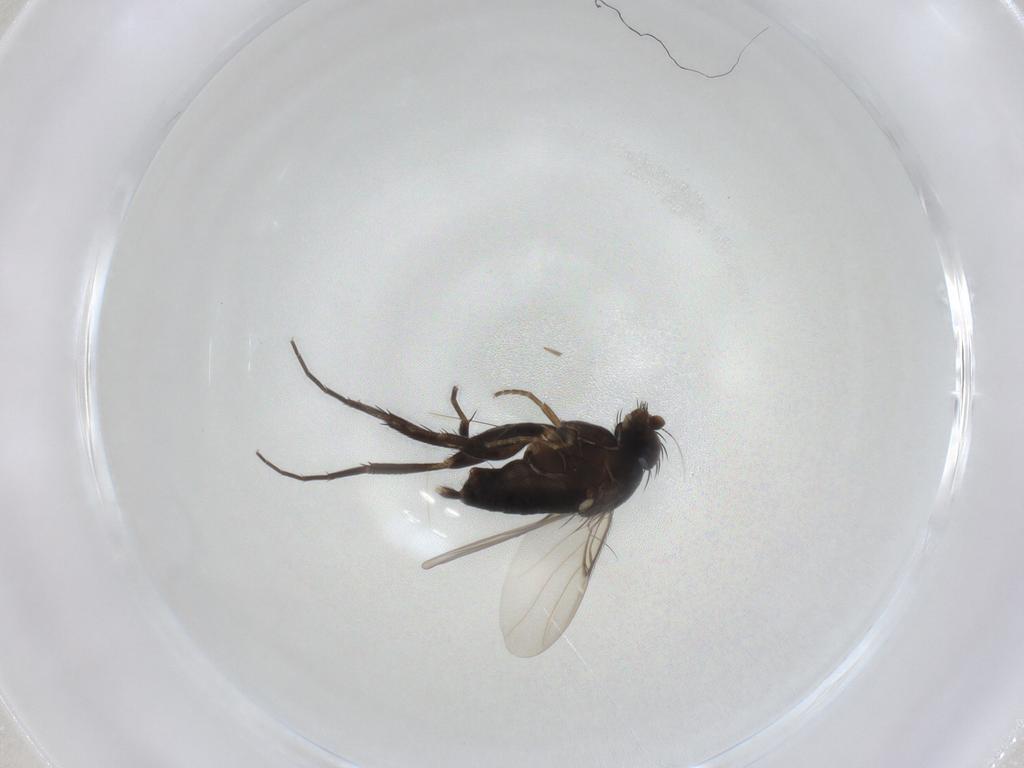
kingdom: Animalia
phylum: Arthropoda
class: Insecta
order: Diptera
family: Phoridae
